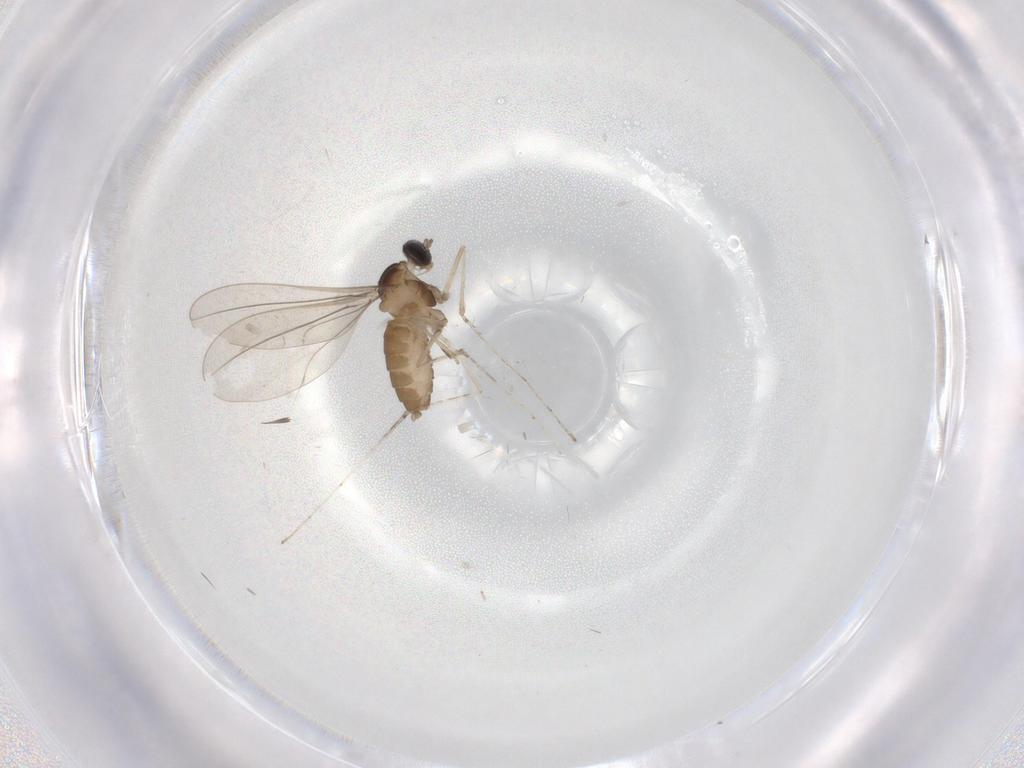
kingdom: Animalia
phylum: Arthropoda
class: Insecta
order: Diptera
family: Cecidomyiidae
